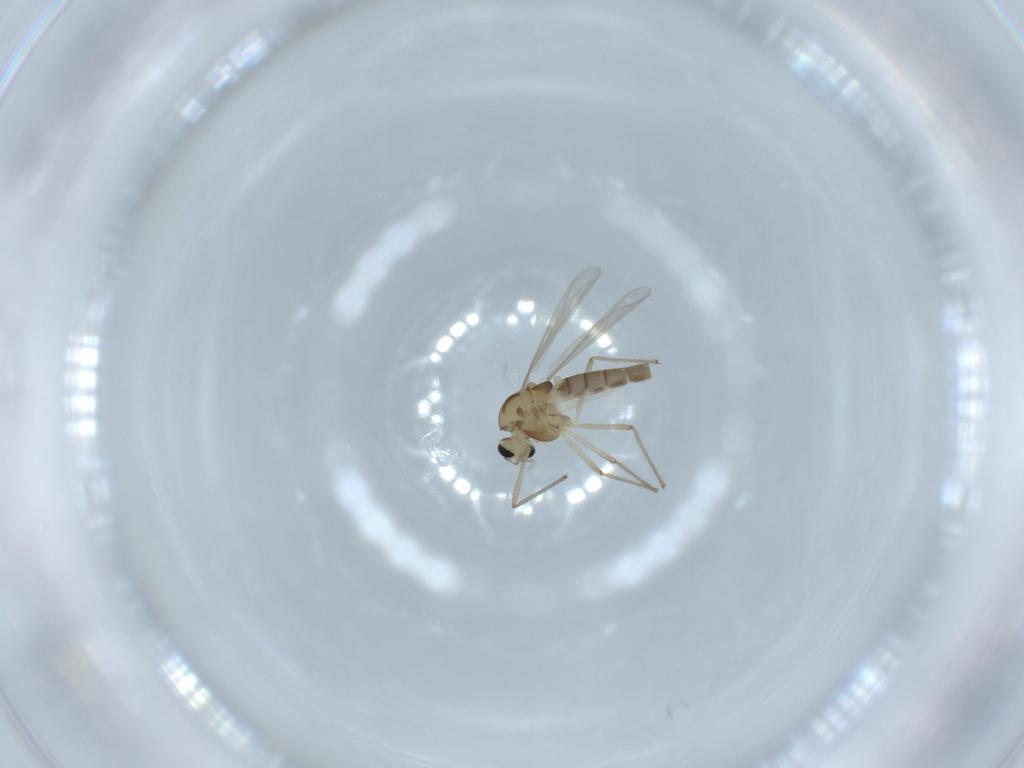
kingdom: Animalia
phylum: Arthropoda
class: Insecta
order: Diptera
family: Chironomidae
